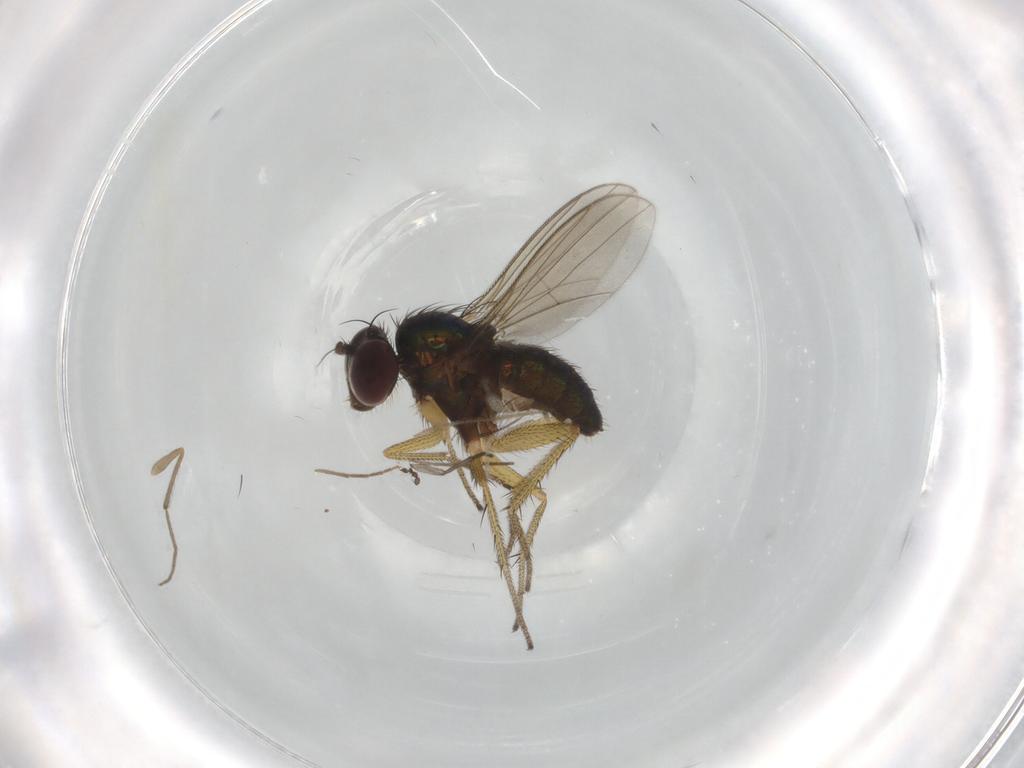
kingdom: Animalia
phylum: Arthropoda
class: Insecta
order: Diptera
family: Sciaridae
